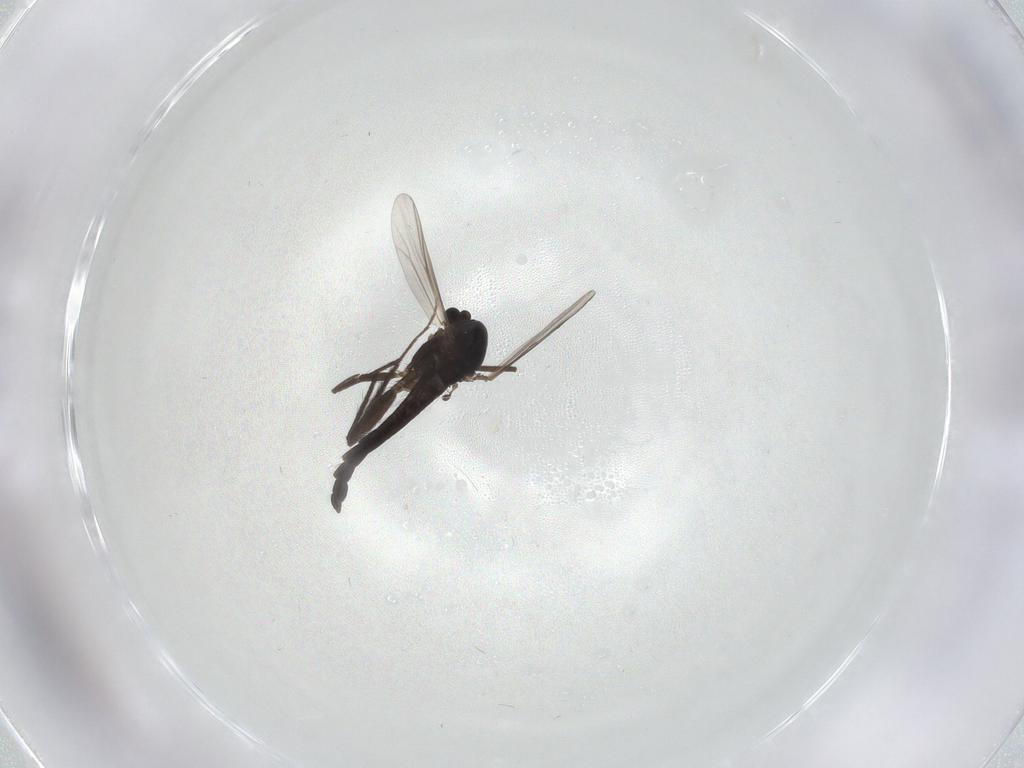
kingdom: Animalia
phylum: Arthropoda
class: Insecta
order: Diptera
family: Chironomidae
